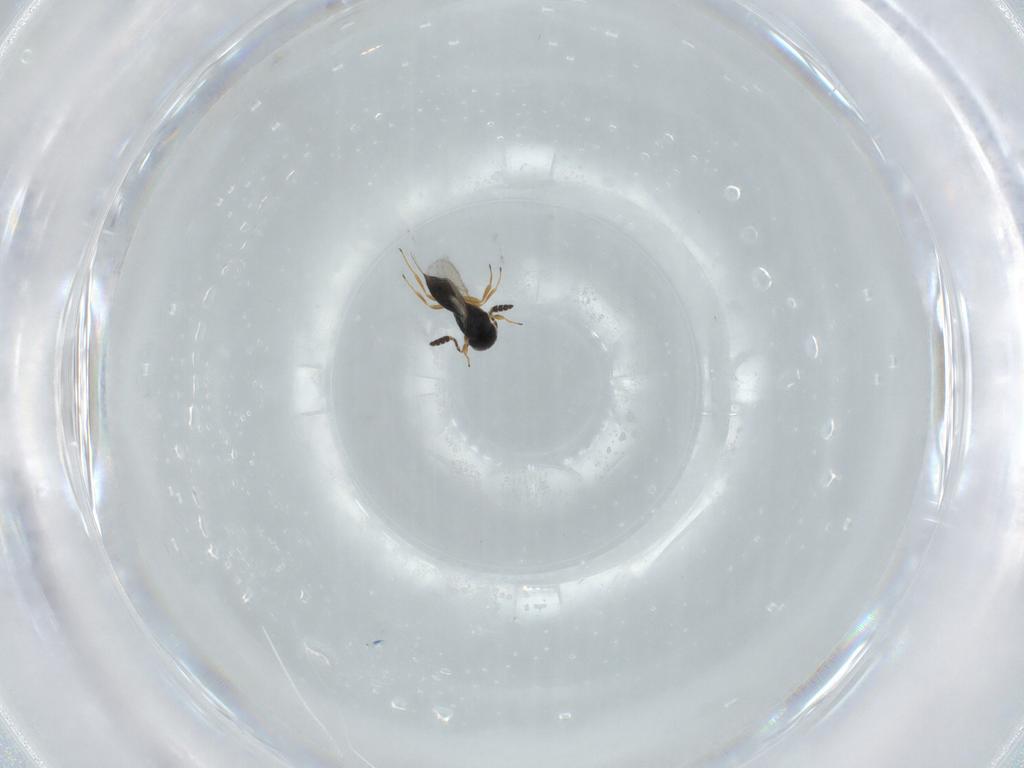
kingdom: Animalia
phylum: Arthropoda
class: Insecta
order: Hymenoptera
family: Scelionidae
